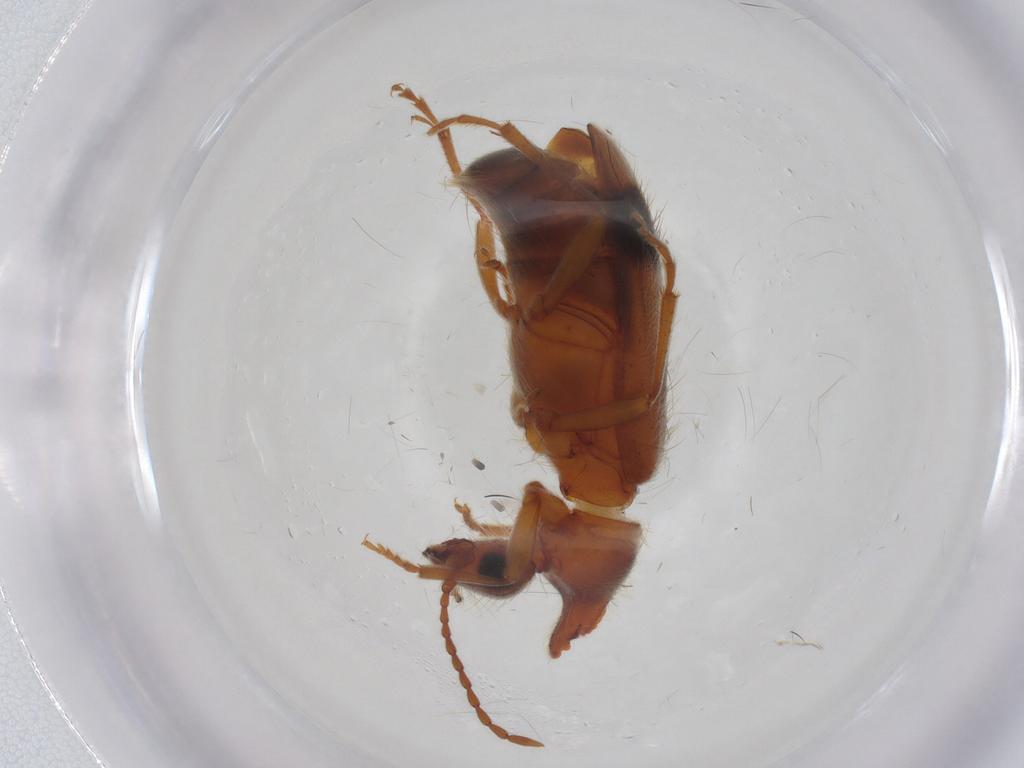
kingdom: Animalia
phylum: Arthropoda
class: Insecta
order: Coleoptera
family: Anthicidae
